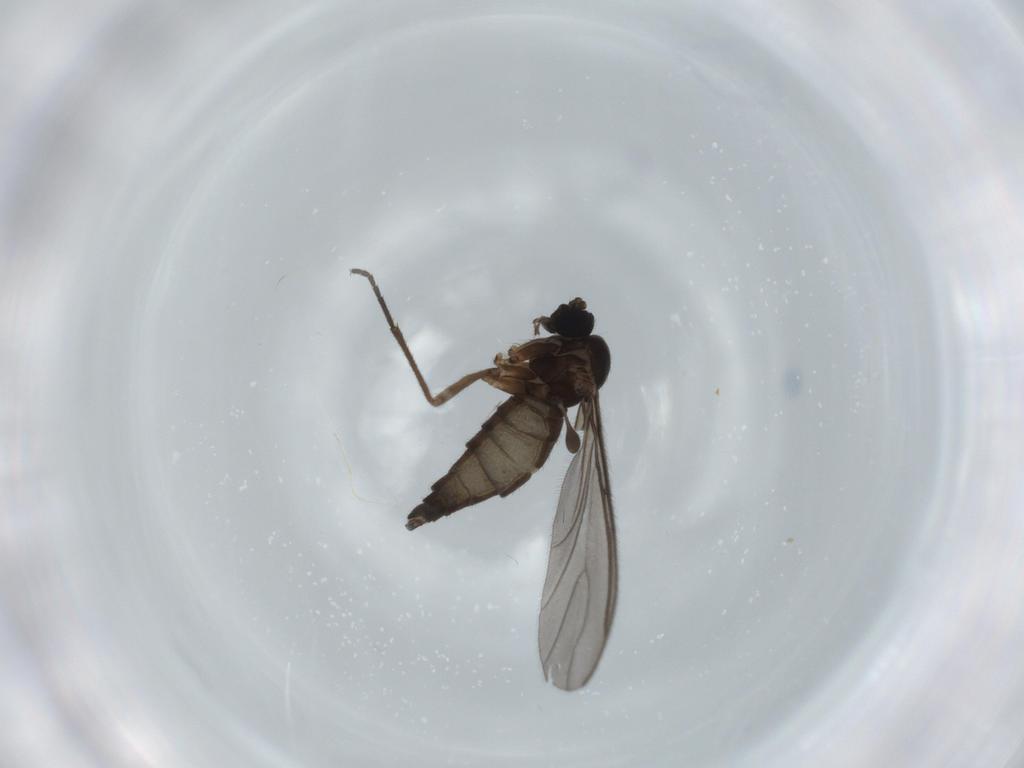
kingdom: Animalia
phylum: Arthropoda
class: Insecta
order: Diptera
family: Sciaridae
